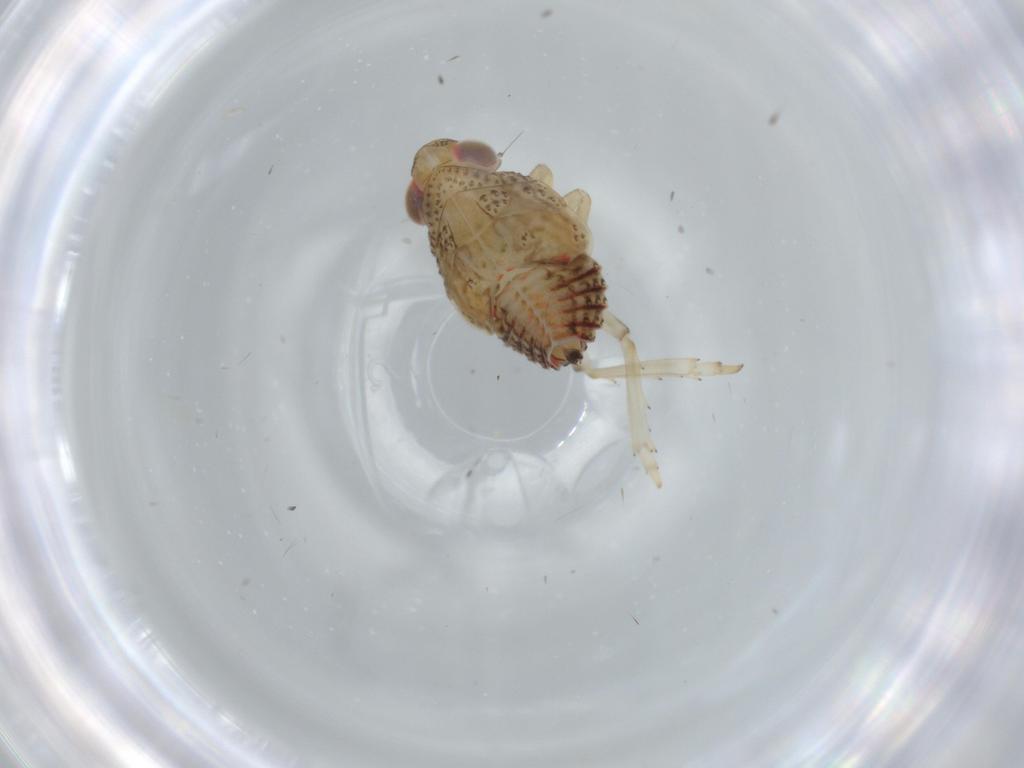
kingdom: Animalia
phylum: Arthropoda
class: Insecta
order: Hemiptera
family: Issidae
